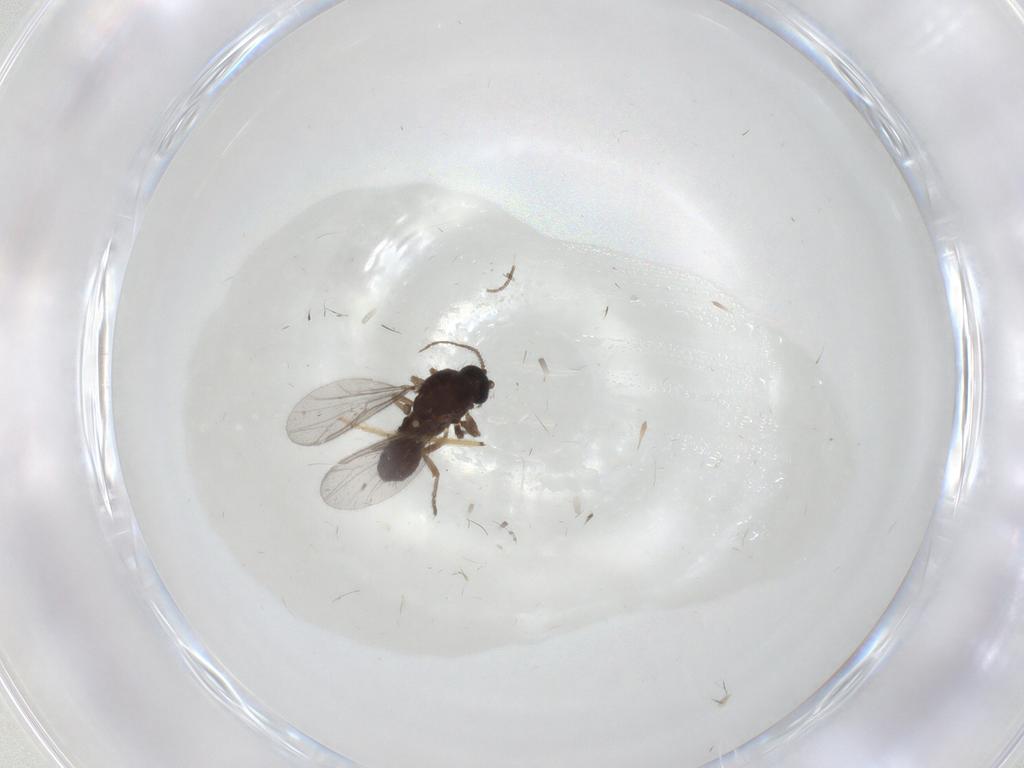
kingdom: Animalia
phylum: Arthropoda
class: Insecta
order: Diptera
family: Ceratopogonidae
